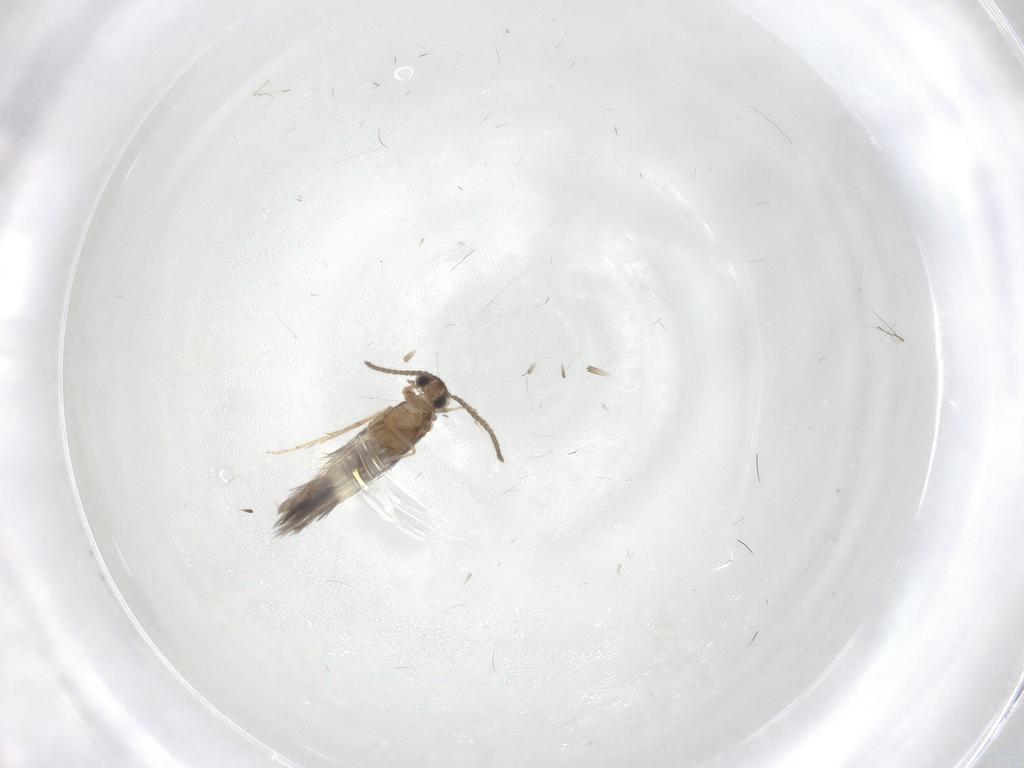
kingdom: Animalia
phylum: Arthropoda
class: Insecta
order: Trichoptera
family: Hydroptilidae
